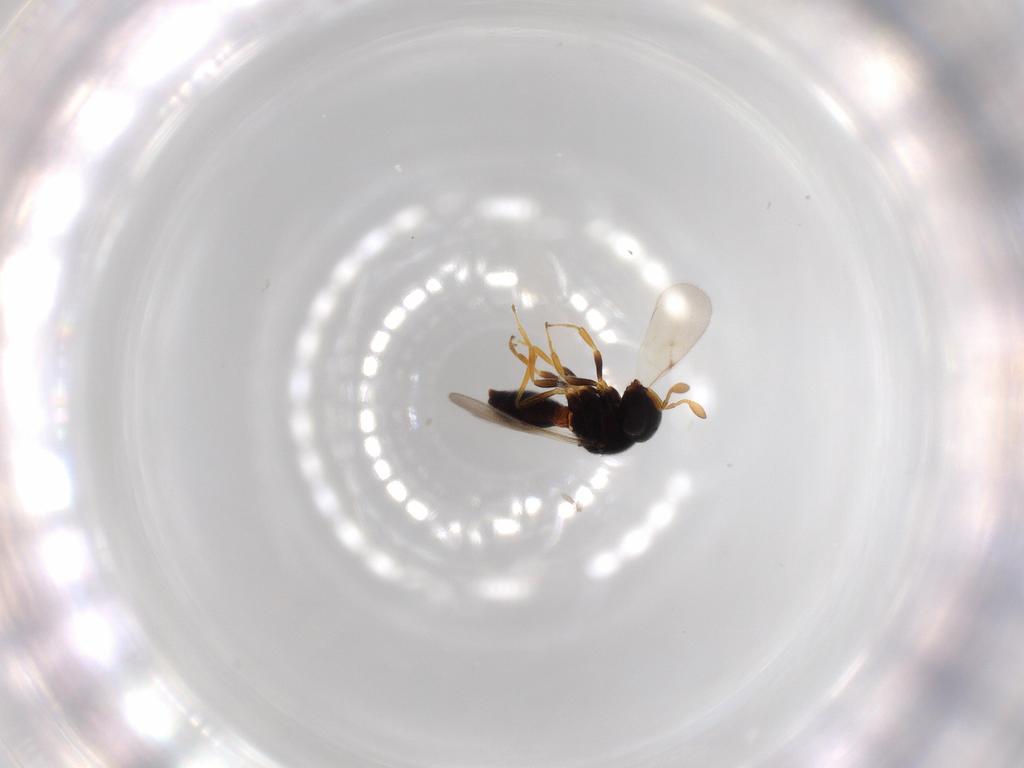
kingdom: Animalia
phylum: Arthropoda
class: Insecta
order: Hymenoptera
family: Scelionidae
